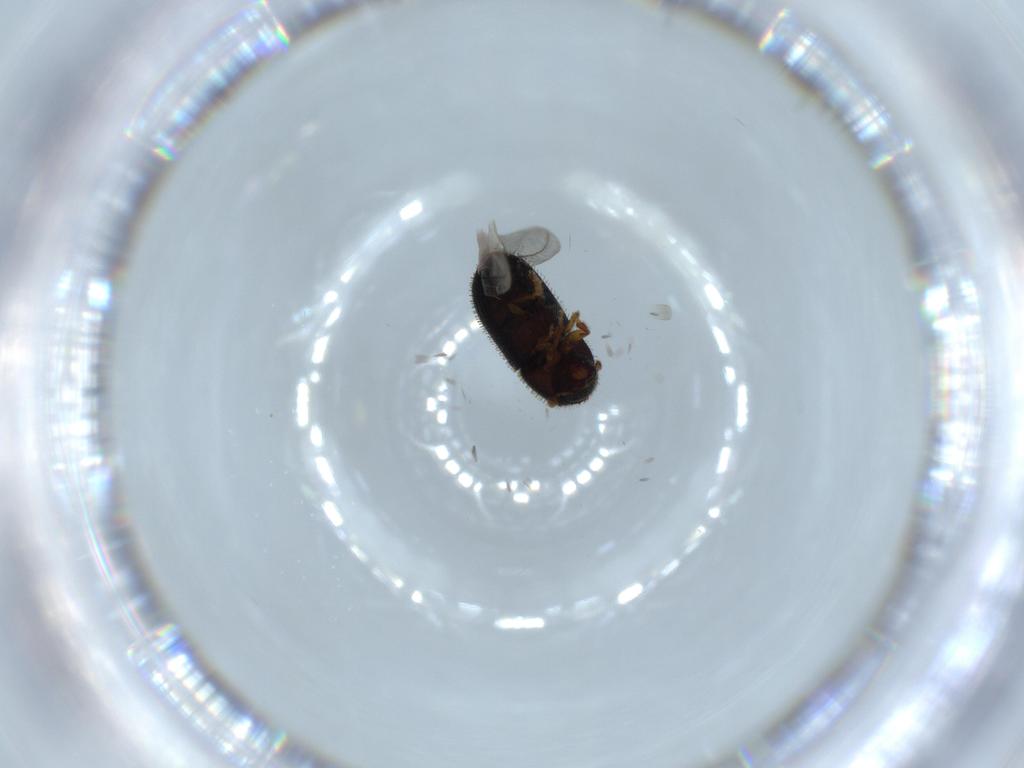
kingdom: Animalia
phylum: Arthropoda
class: Insecta
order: Coleoptera
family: Curculionidae
